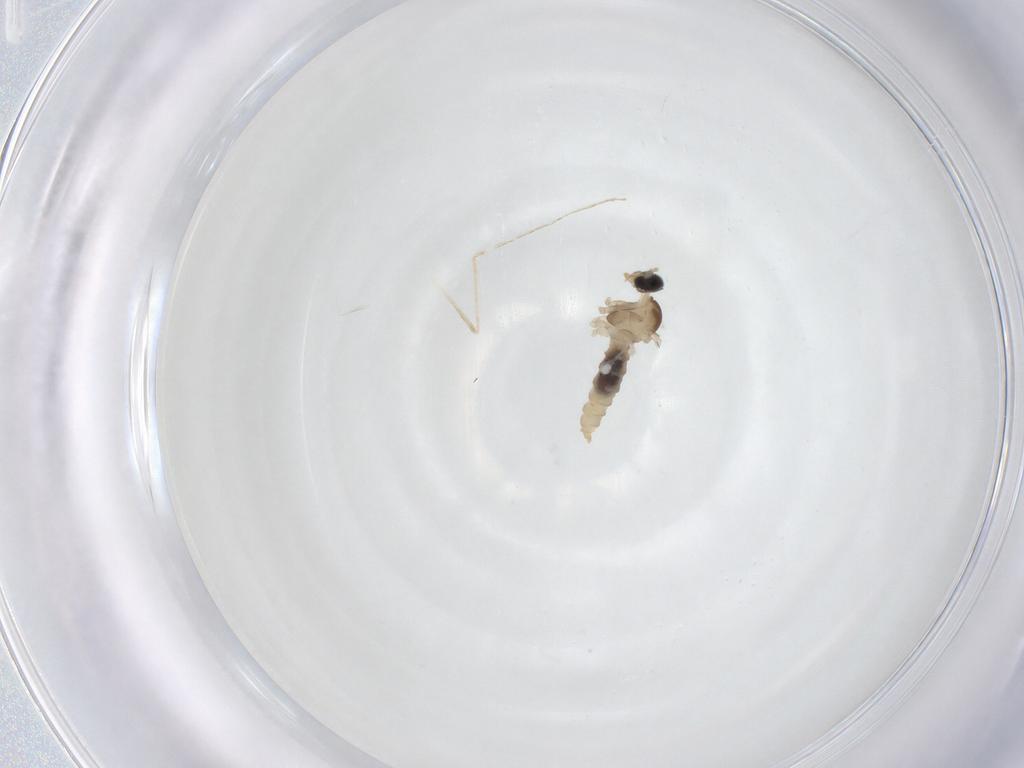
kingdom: Animalia
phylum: Arthropoda
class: Insecta
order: Diptera
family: Cecidomyiidae
